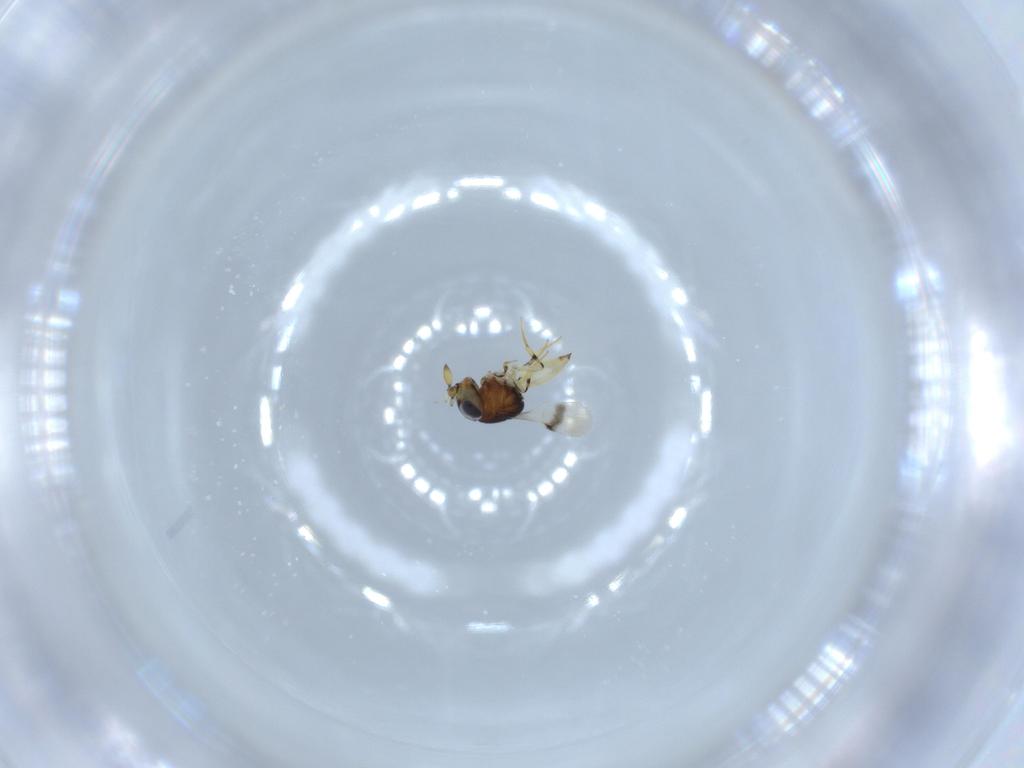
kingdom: Animalia
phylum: Arthropoda
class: Insecta
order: Hymenoptera
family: Scelionidae
